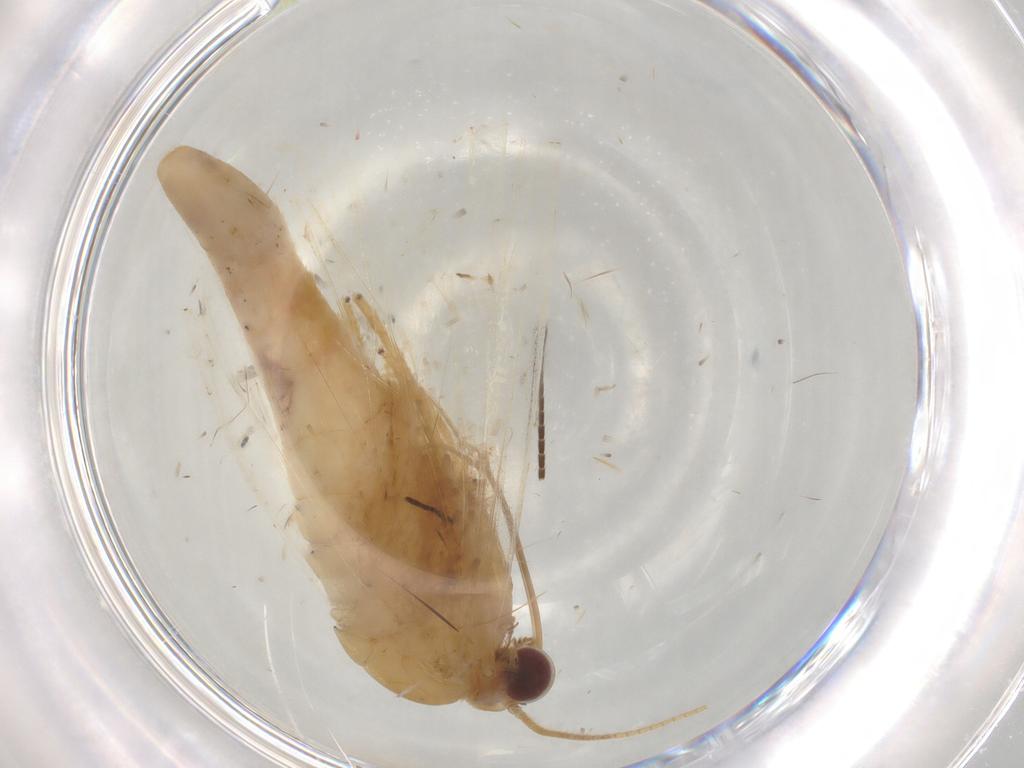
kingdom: Animalia
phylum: Arthropoda
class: Insecta
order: Lepidoptera
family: Geometridae
